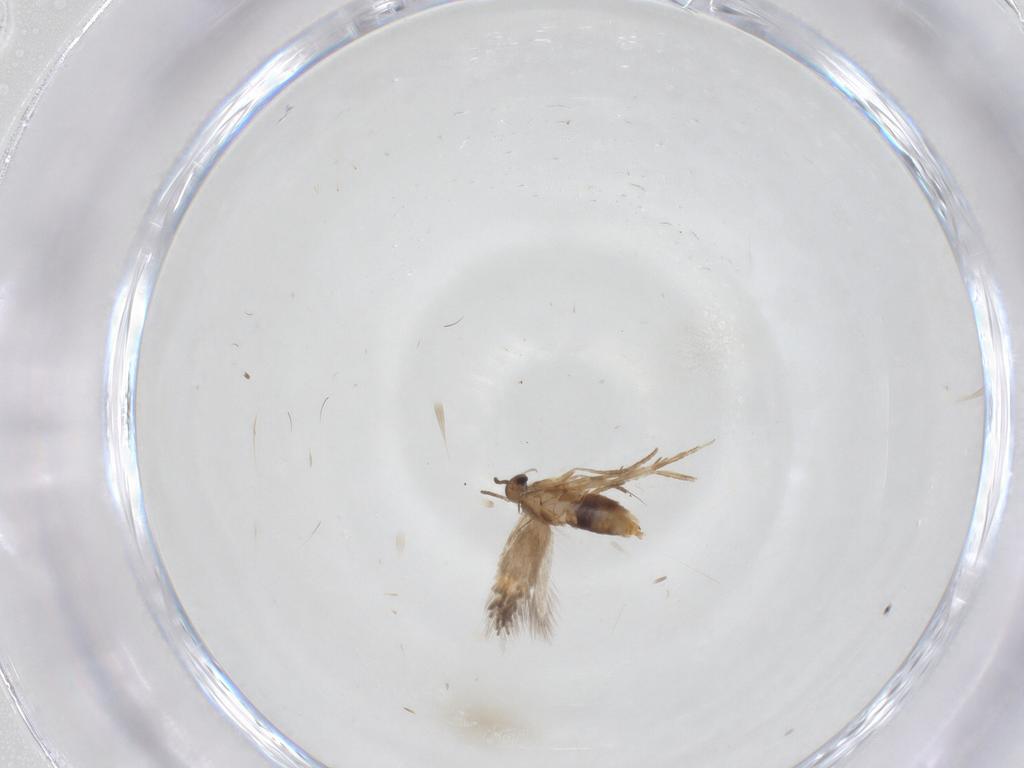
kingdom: Animalia
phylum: Arthropoda
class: Insecta
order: Lepidoptera
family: Heliozelidae
